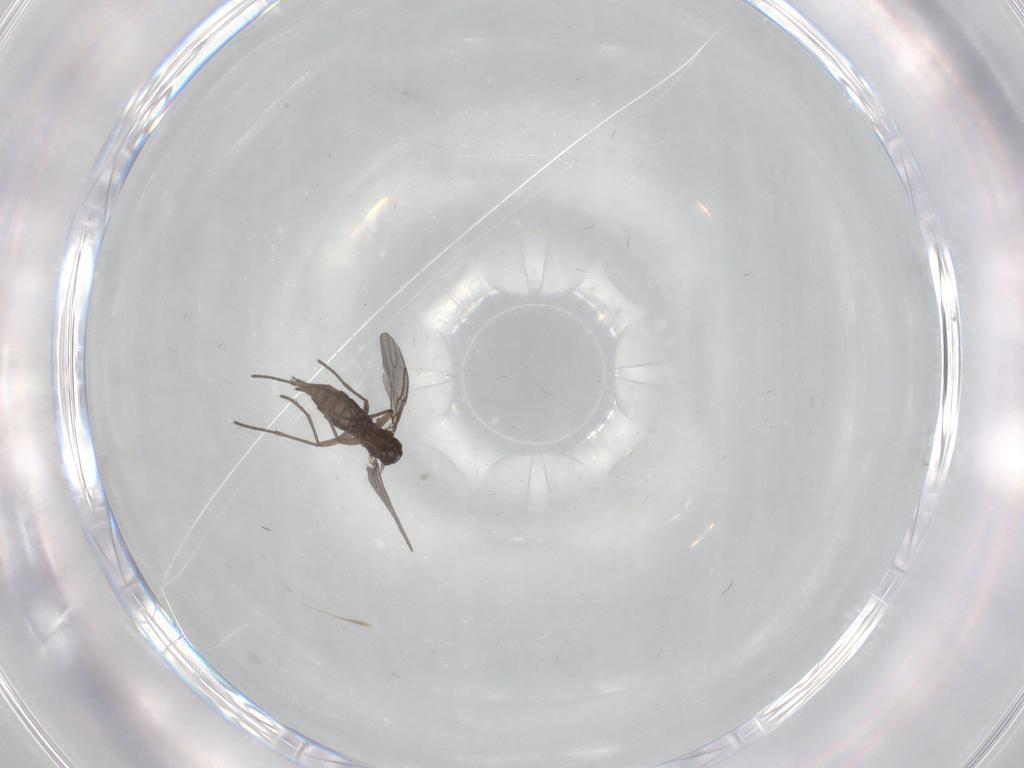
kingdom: Animalia
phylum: Arthropoda
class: Insecta
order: Diptera
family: Sciaridae
